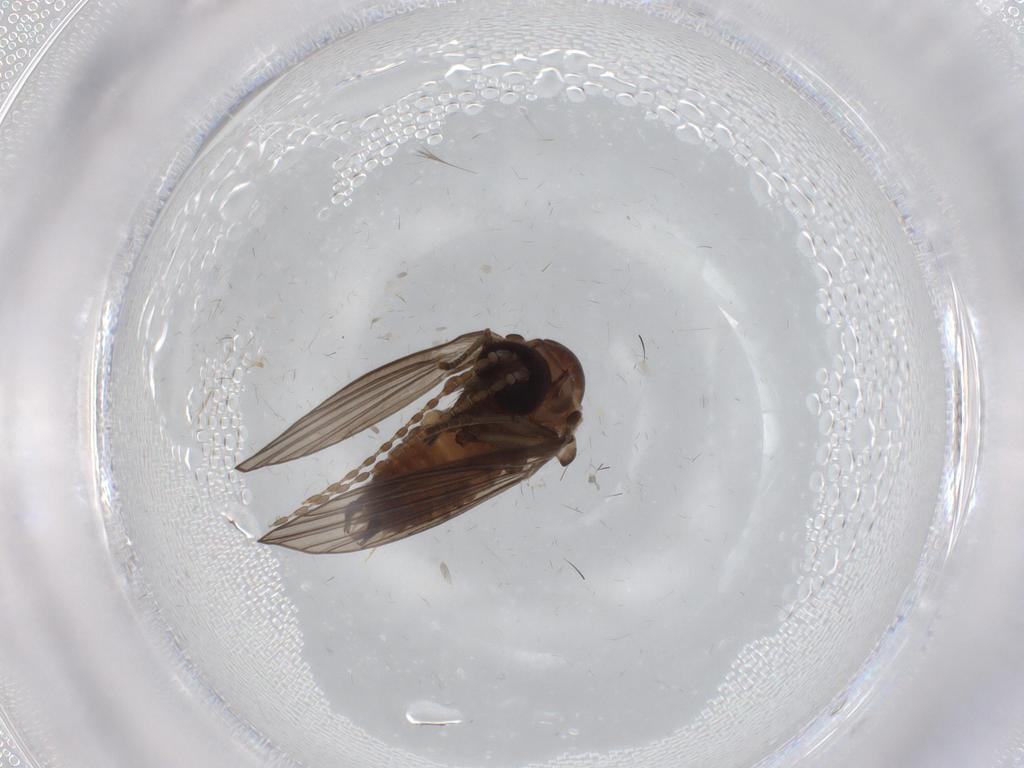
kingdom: Animalia
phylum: Arthropoda
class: Insecta
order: Diptera
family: Psychodidae
